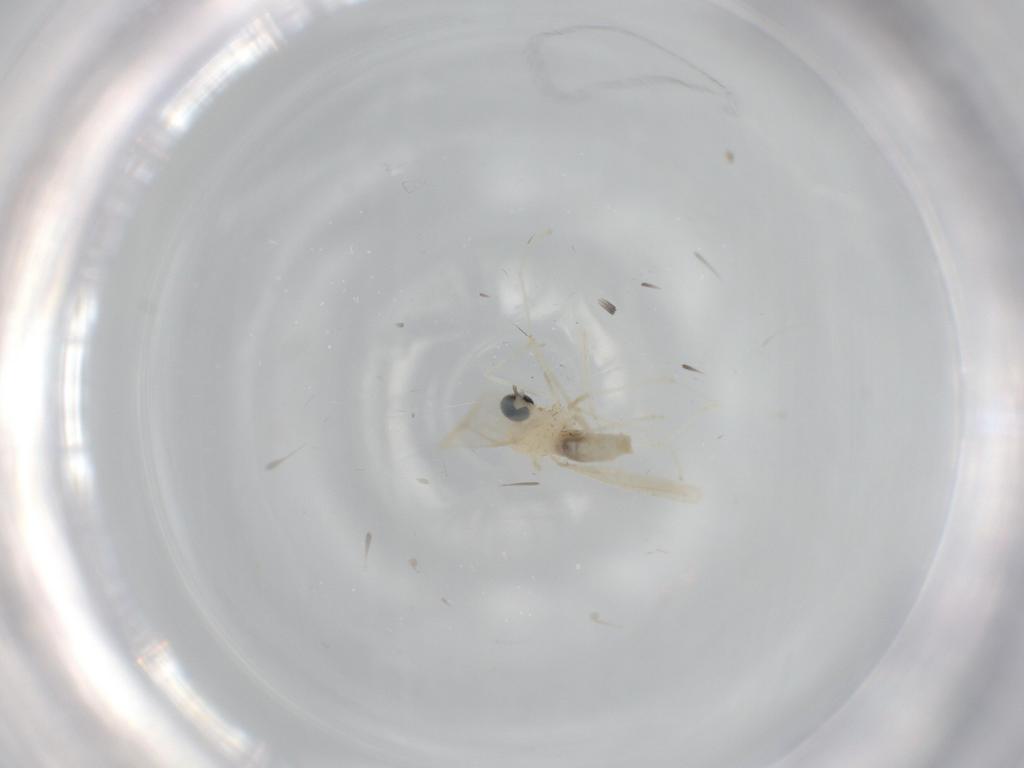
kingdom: Animalia
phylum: Arthropoda
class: Insecta
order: Diptera
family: Cecidomyiidae
